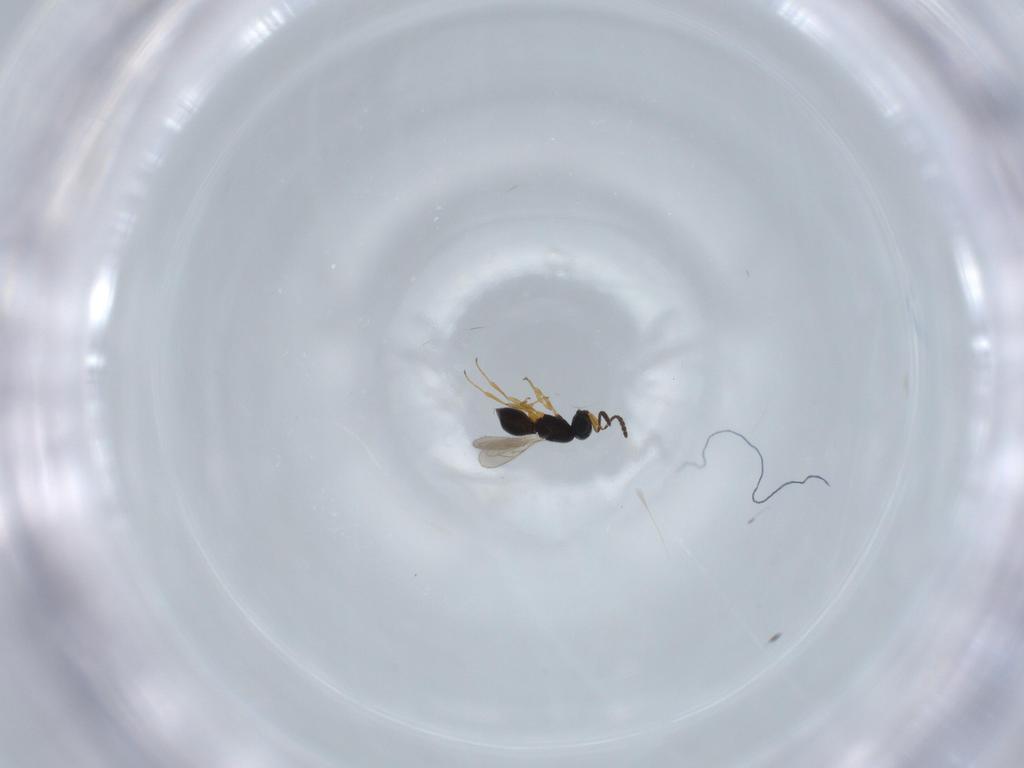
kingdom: Animalia
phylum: Arthropoda
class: Insecta
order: Hymenoptera
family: Scelionidae
